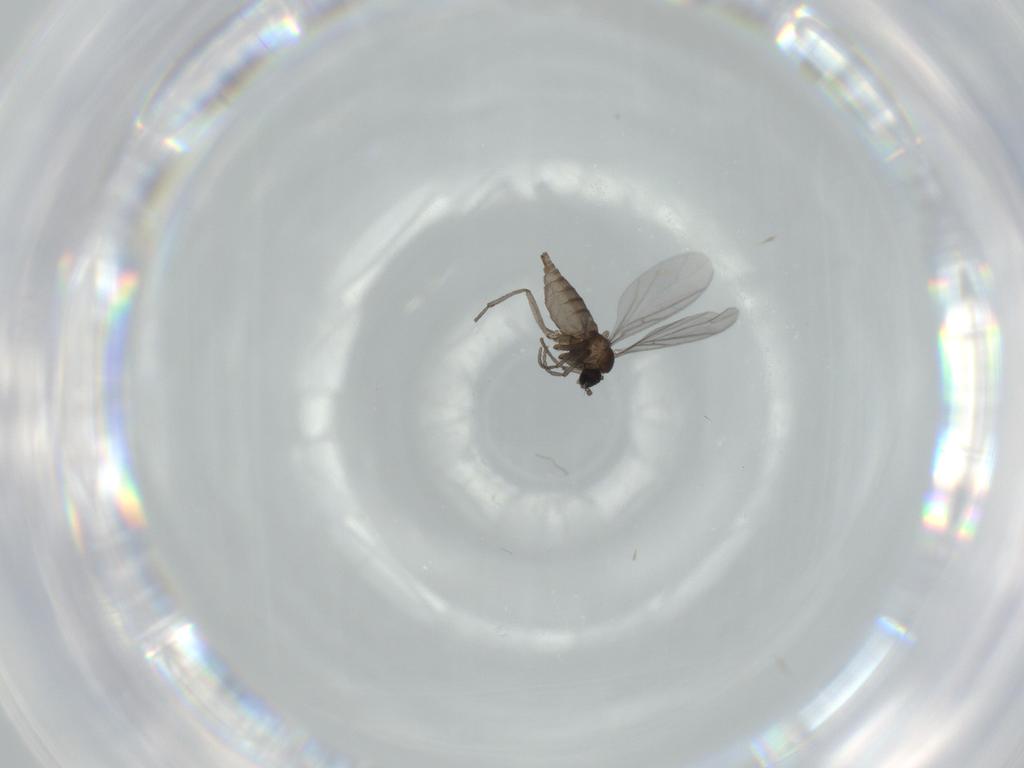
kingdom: Animalia
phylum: Arthropoda
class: Insecta
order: Diptera
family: Sciaridae
